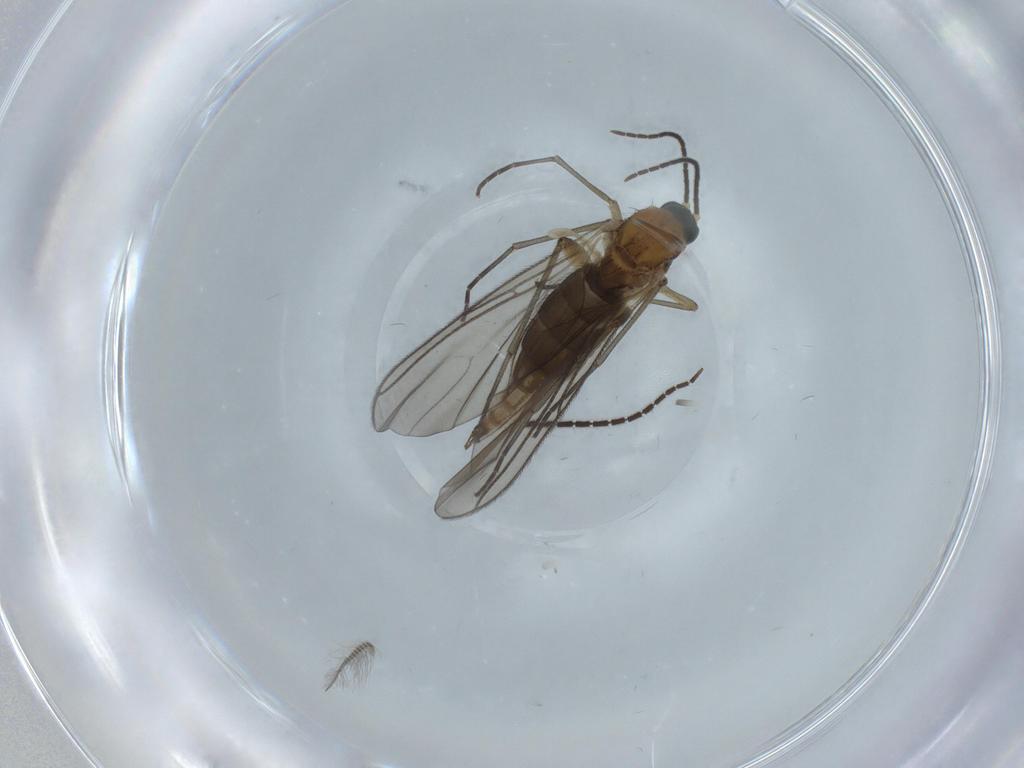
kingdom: Animalia
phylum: Arthropoda
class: Insecta
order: Diptera
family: Sciaridae
